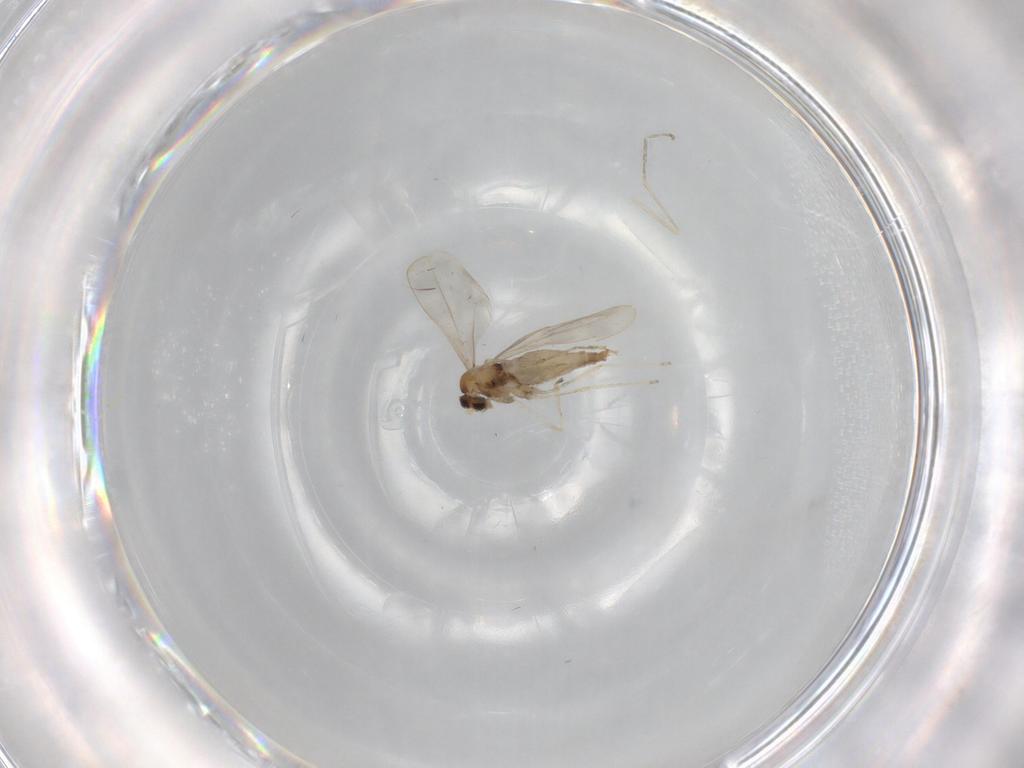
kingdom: Animalia
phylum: Arthropoda
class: Insecta
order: Diptera
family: Cecidomyiidae
